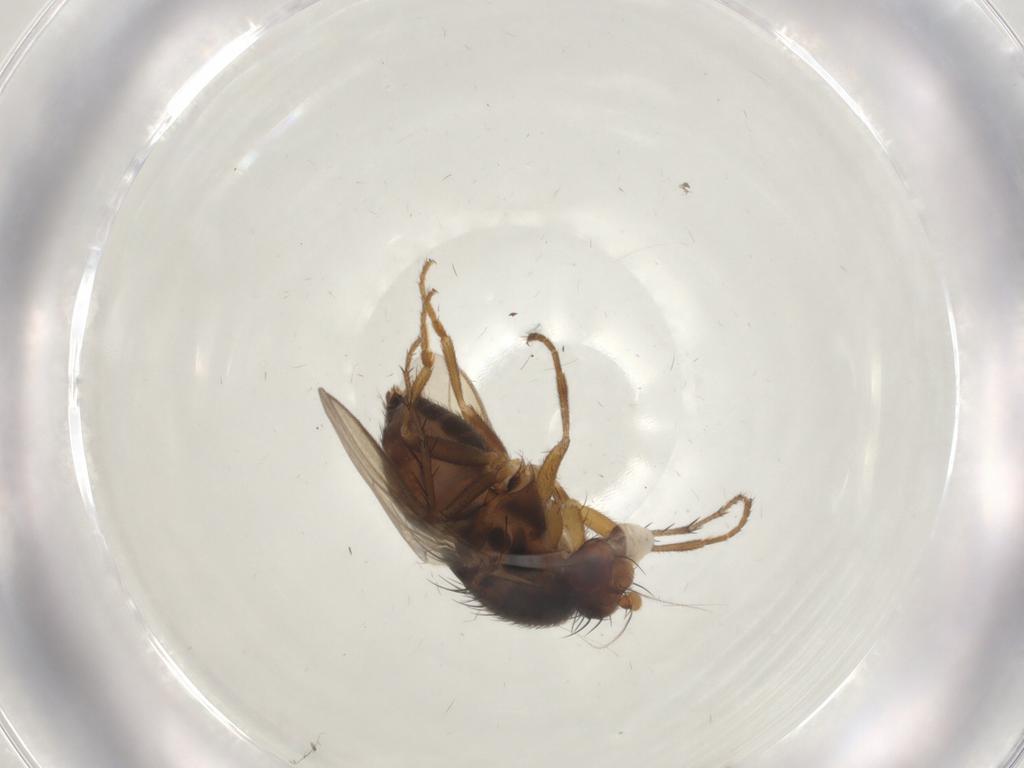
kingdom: Animalia
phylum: Arthropoda
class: Insecta
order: Diptera
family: Sphaeroceridae
